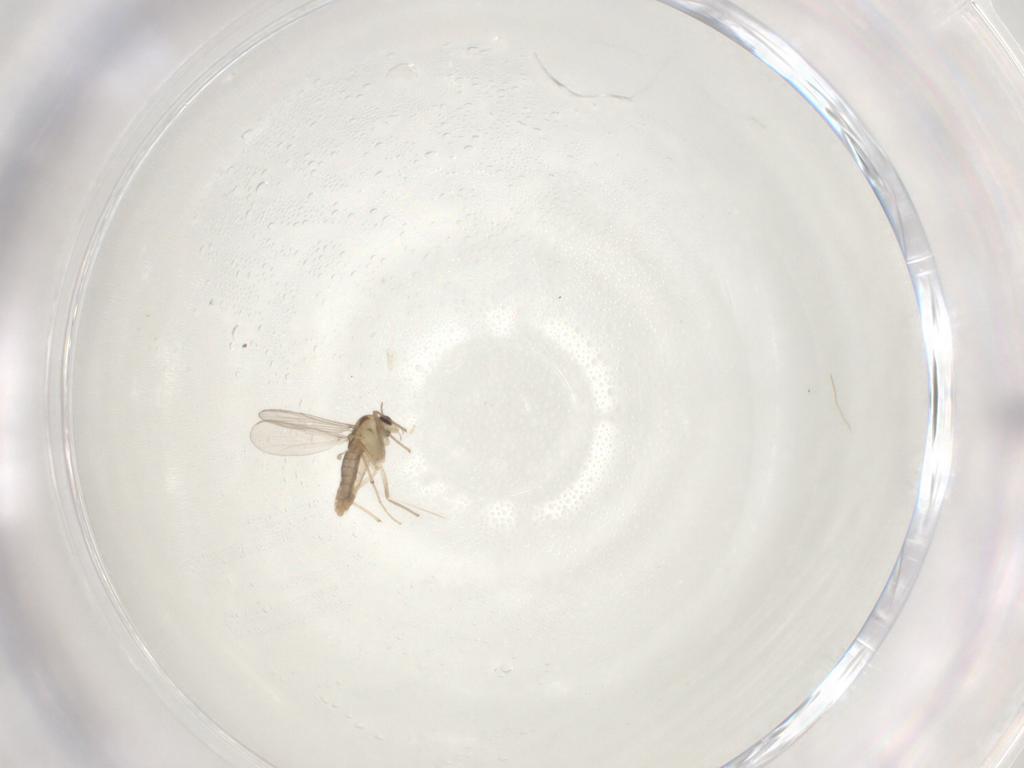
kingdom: Animalia
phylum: Arthropoda
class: Insecta
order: Diptera
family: Chironomidae
